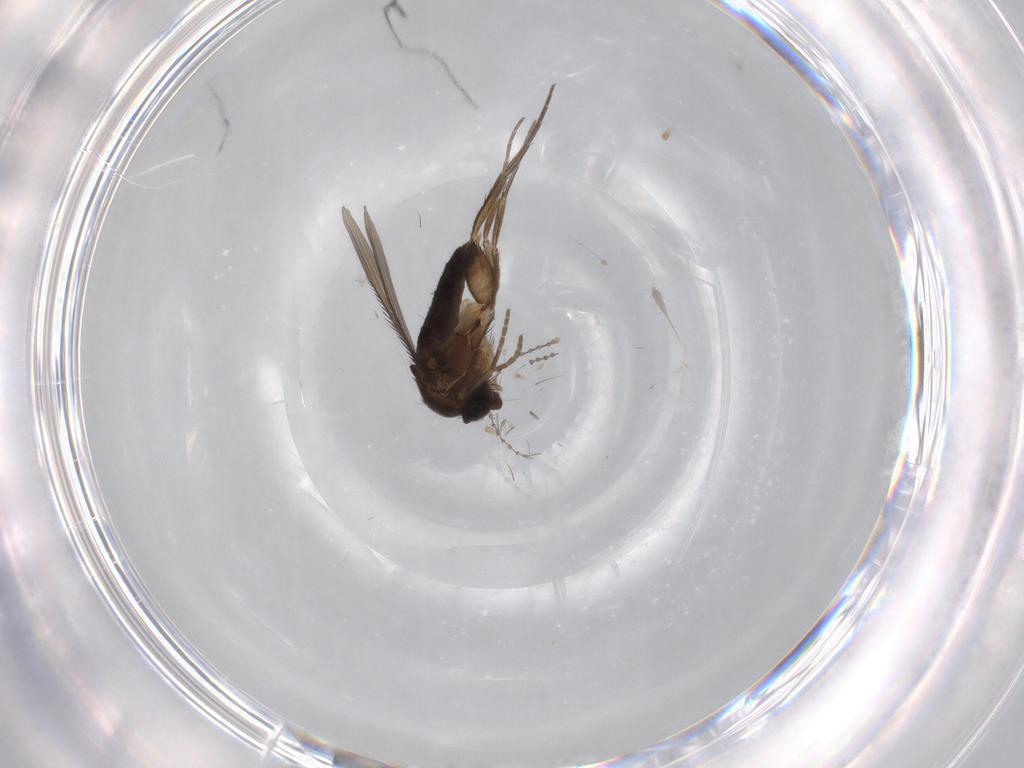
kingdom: Animalia
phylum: Arthropoda
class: Insecta
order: Diptera
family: Phoridae
